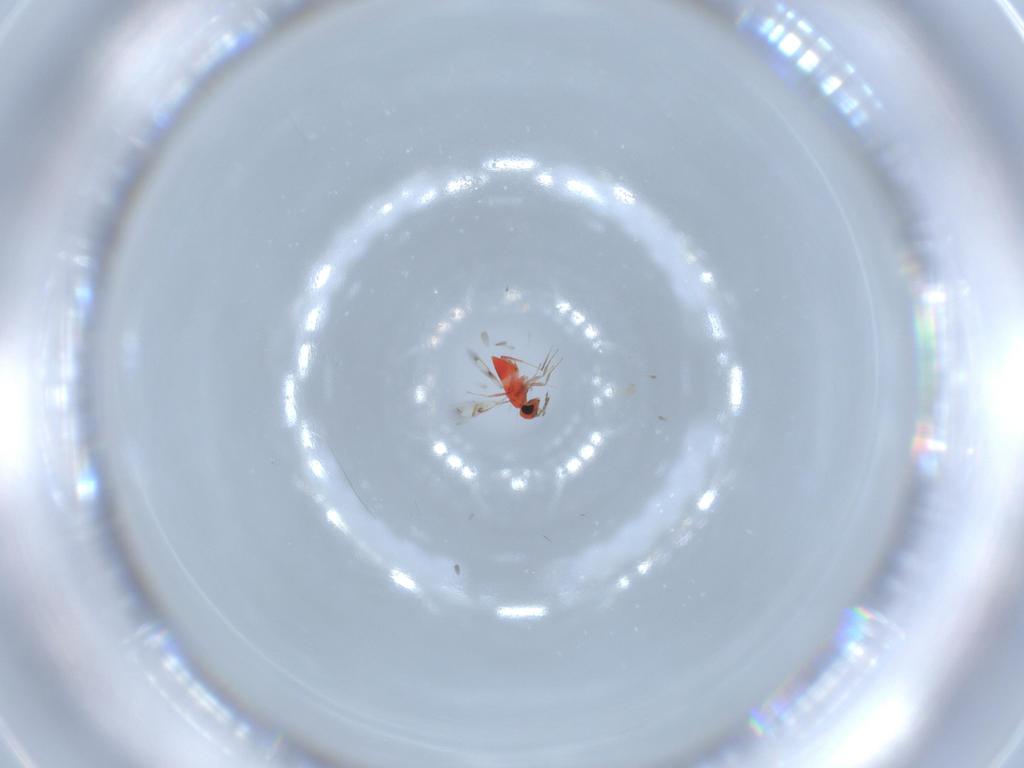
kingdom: Animalia
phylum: Arthropoda
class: Insecta
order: Hymenoptera
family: Trichogrammatidae
